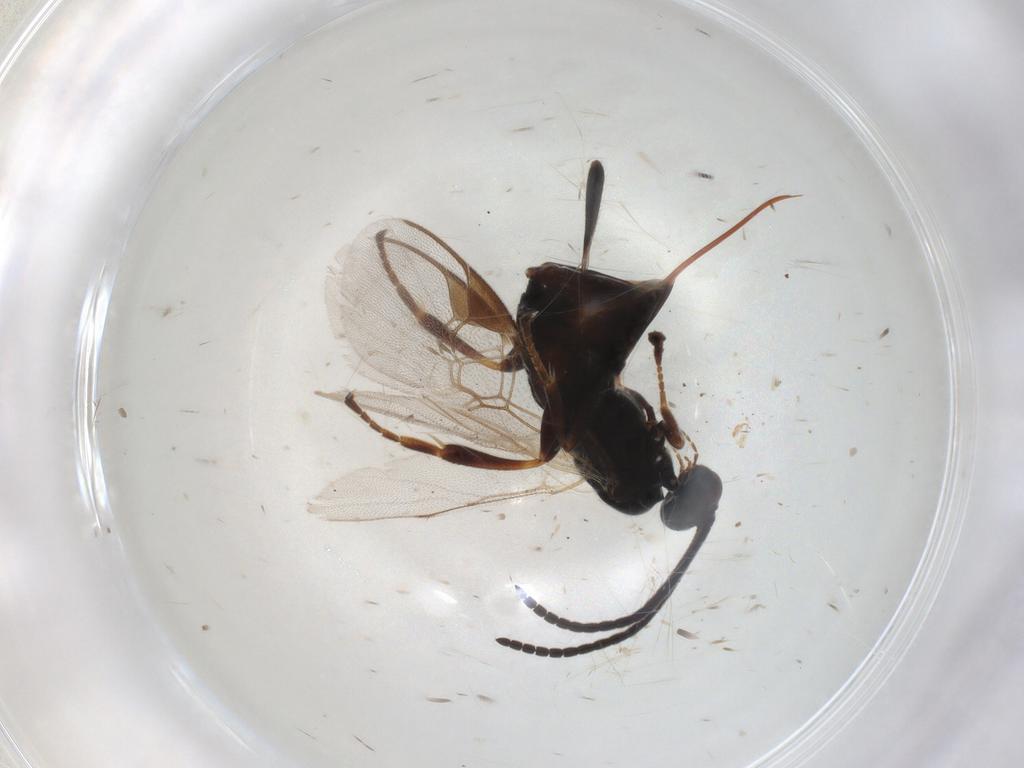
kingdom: Animalia
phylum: Arthropoda
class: Insecta
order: Hymenoptera
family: Braconidae
